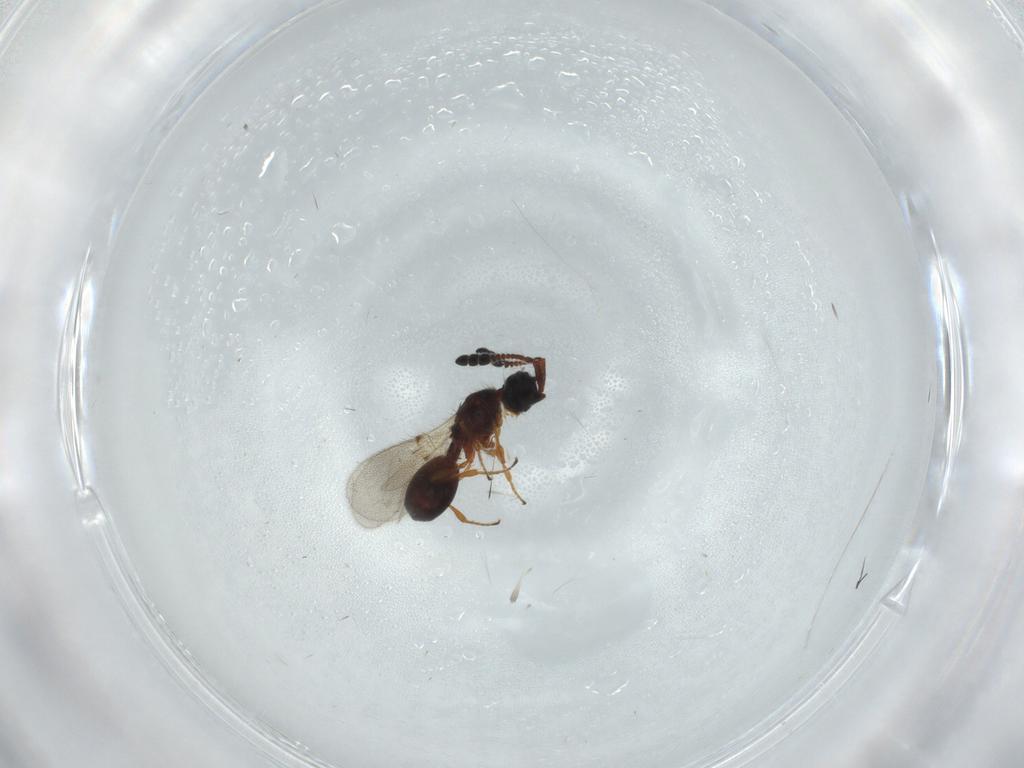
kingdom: Animalia
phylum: Arthropoda
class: Insecta
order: Hymenoptera
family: Diapriidae
